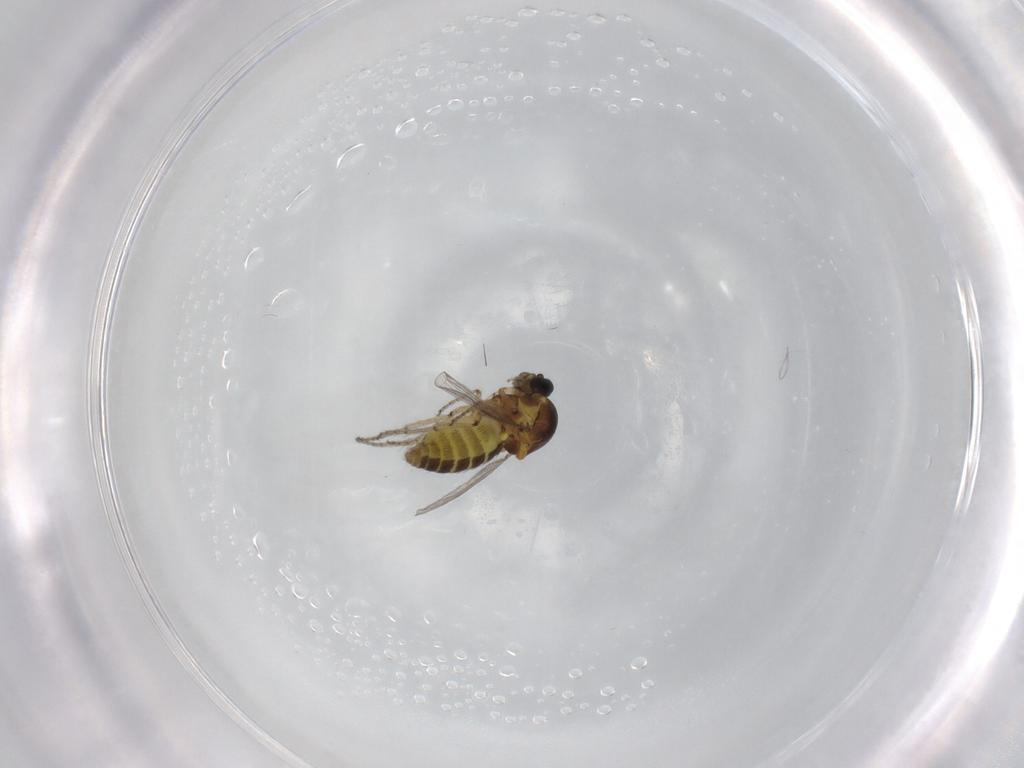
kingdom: Animalia
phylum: Arthropoda
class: Insecta
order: Diptera
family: Ceratopogonidae
